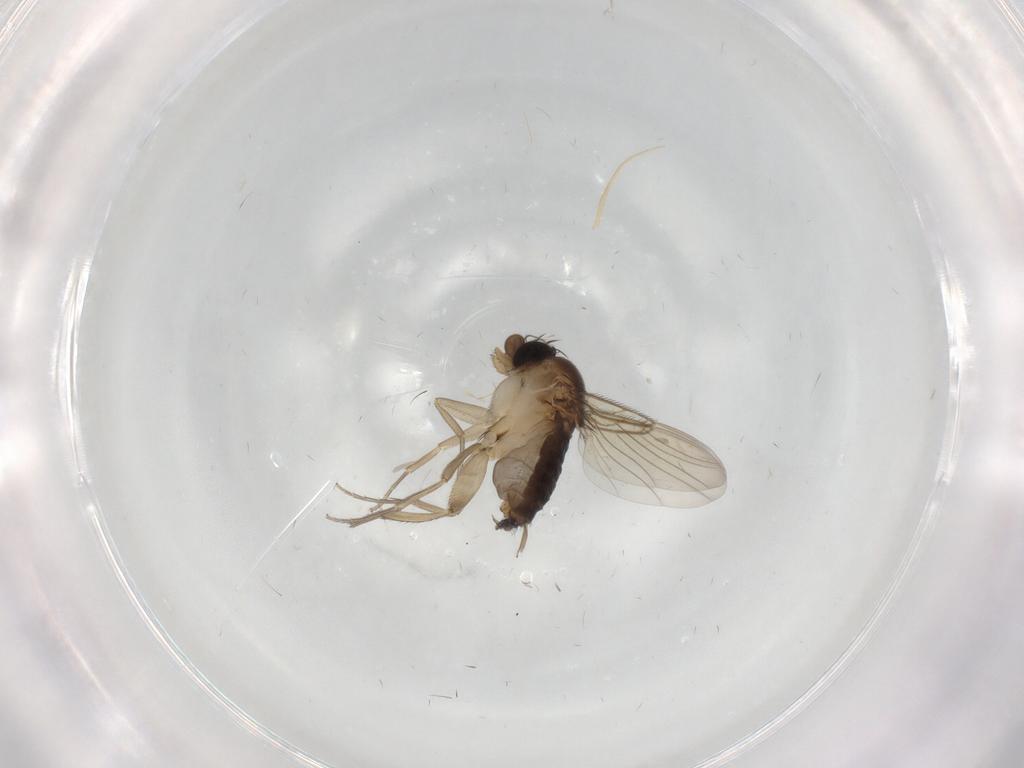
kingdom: Animalia
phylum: Arthropoda
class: Insecta
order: Diptera
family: Phoridae
